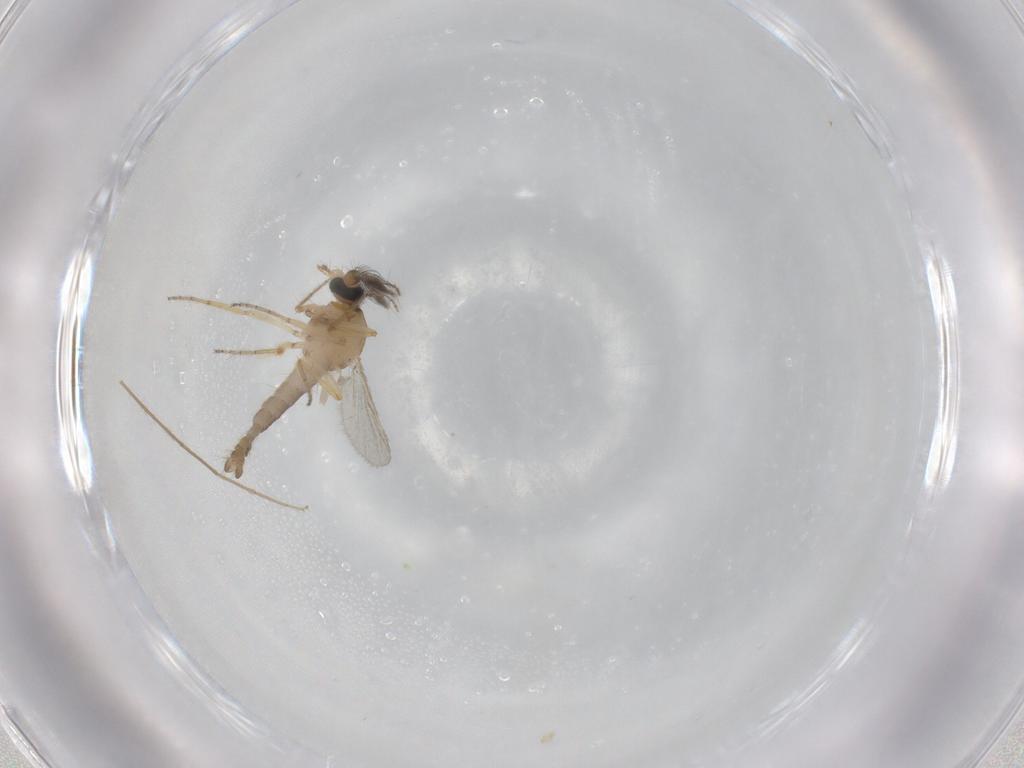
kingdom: Animalia
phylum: Arthropoda
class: Insecta
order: Diptera
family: Ceratopogonidae
